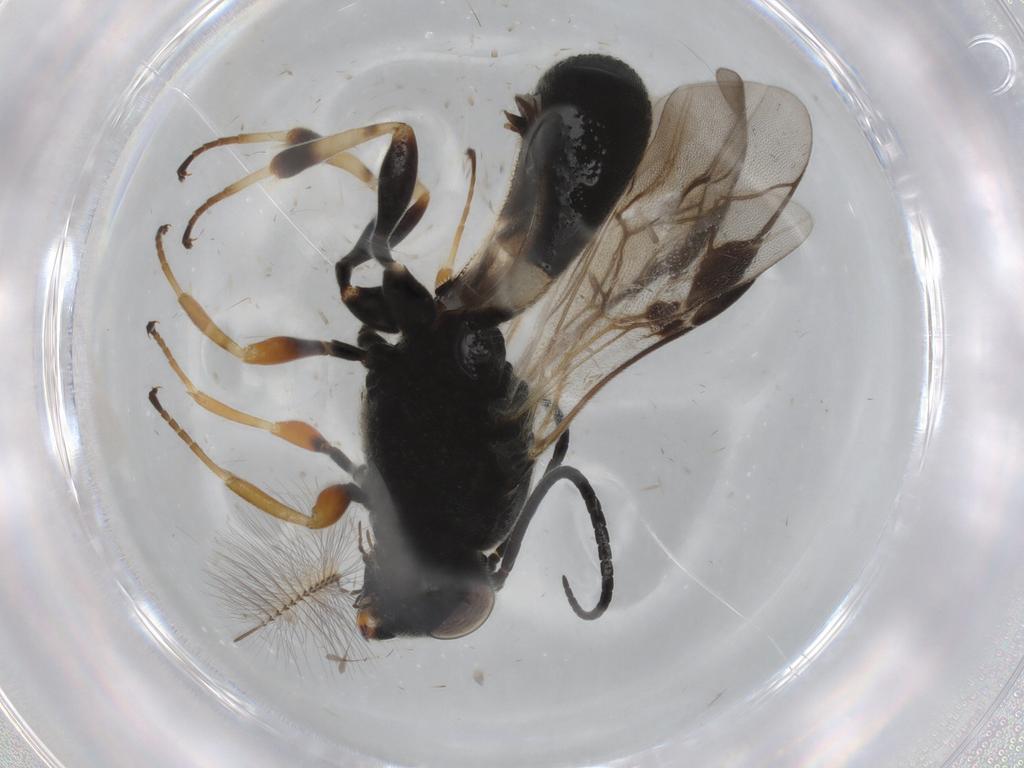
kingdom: Animalia
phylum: Arthropoda
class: Insecta
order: Hymenoptera
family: Braconidae
